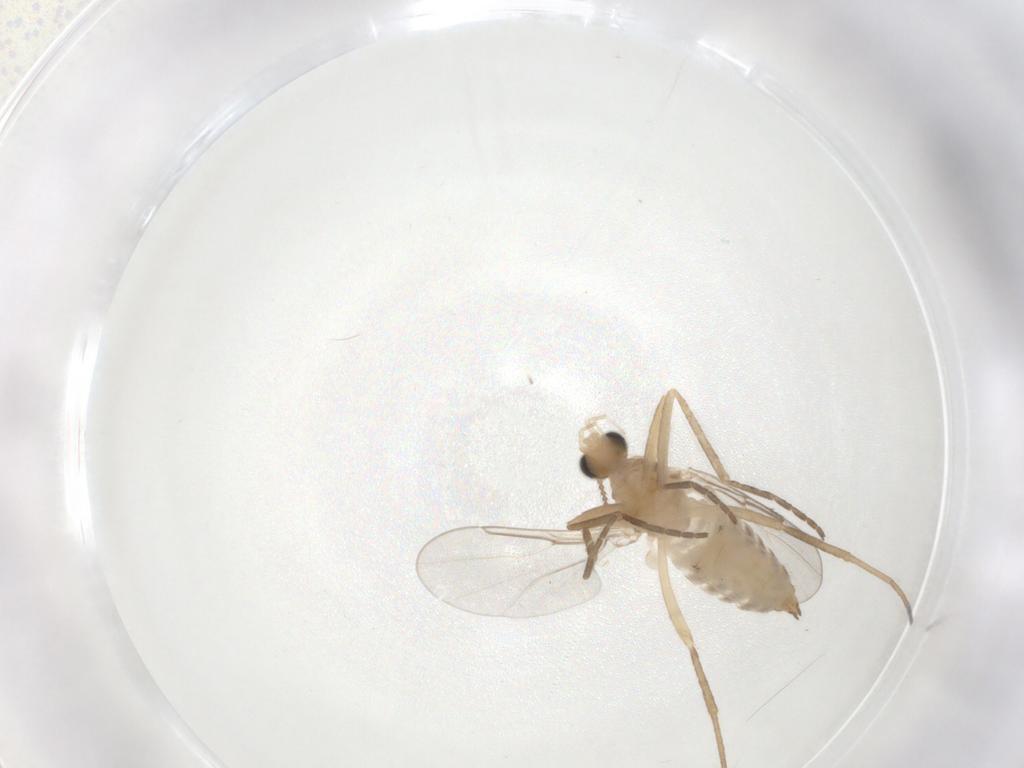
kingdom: Animalia
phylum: Arthropoda
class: Insecta
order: Diptera
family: Cecidomyiidae
